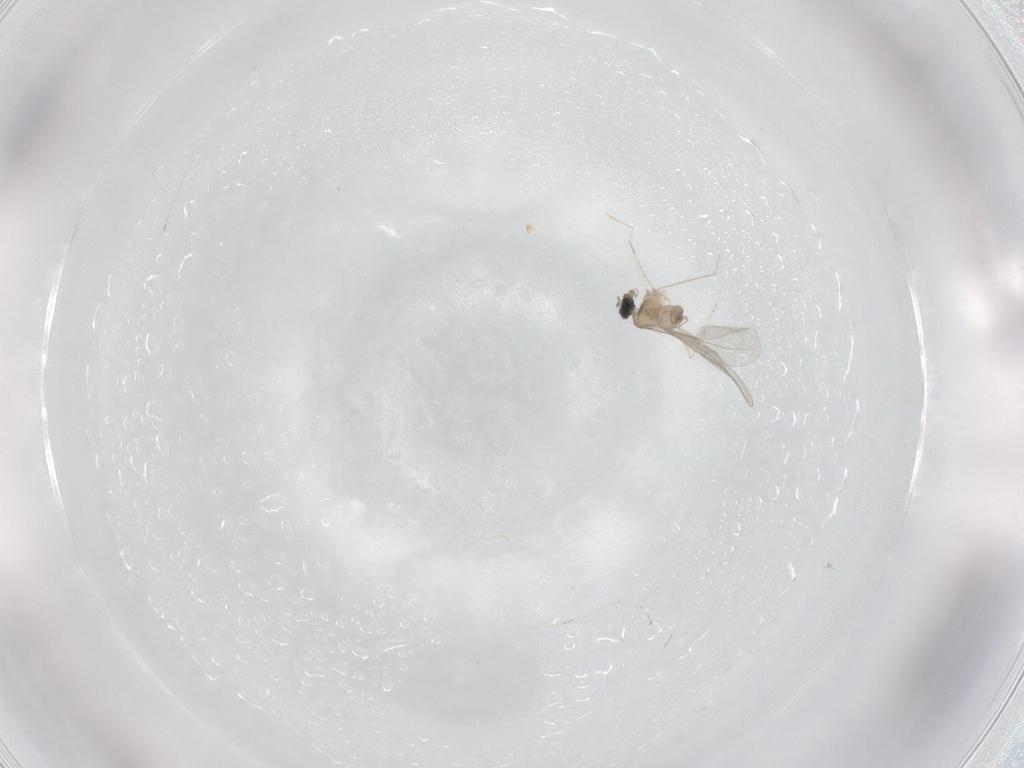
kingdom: Animalia
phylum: Arthropoda
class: Insecta
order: Diptera
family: Cecidomyiidae
